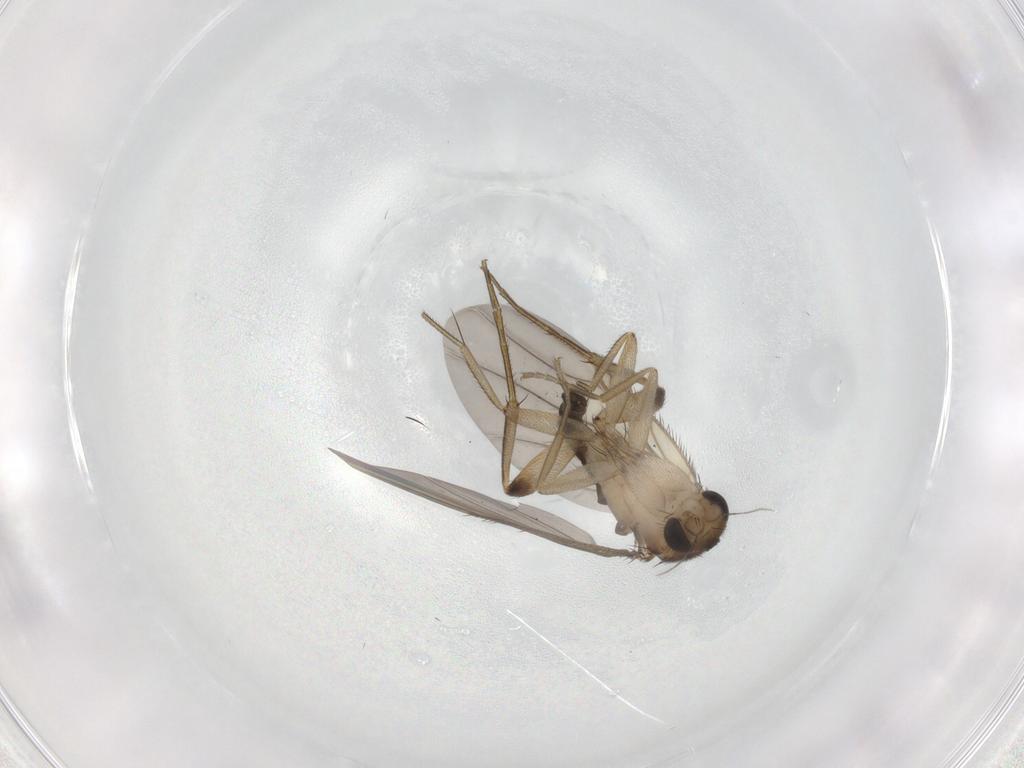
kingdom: Animalia
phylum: Arthropoda
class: Insecta
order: Diptera
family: Phoridae
